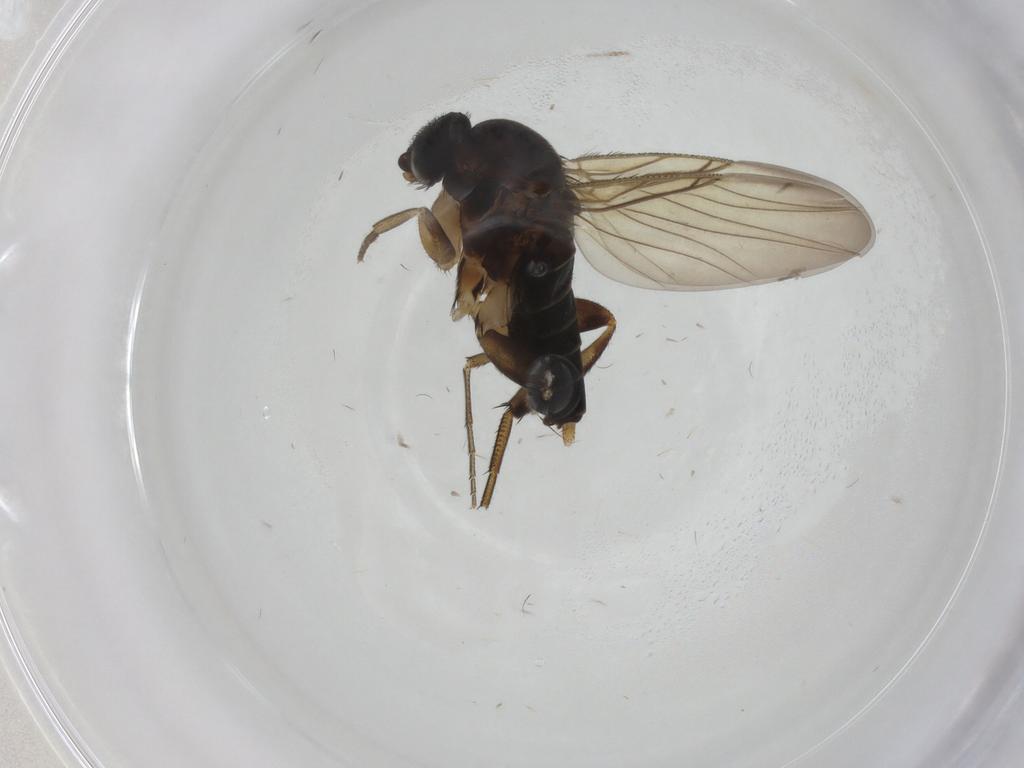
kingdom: Animalia
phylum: Arthropoda
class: Insecta
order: Diptera
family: Phoridae
